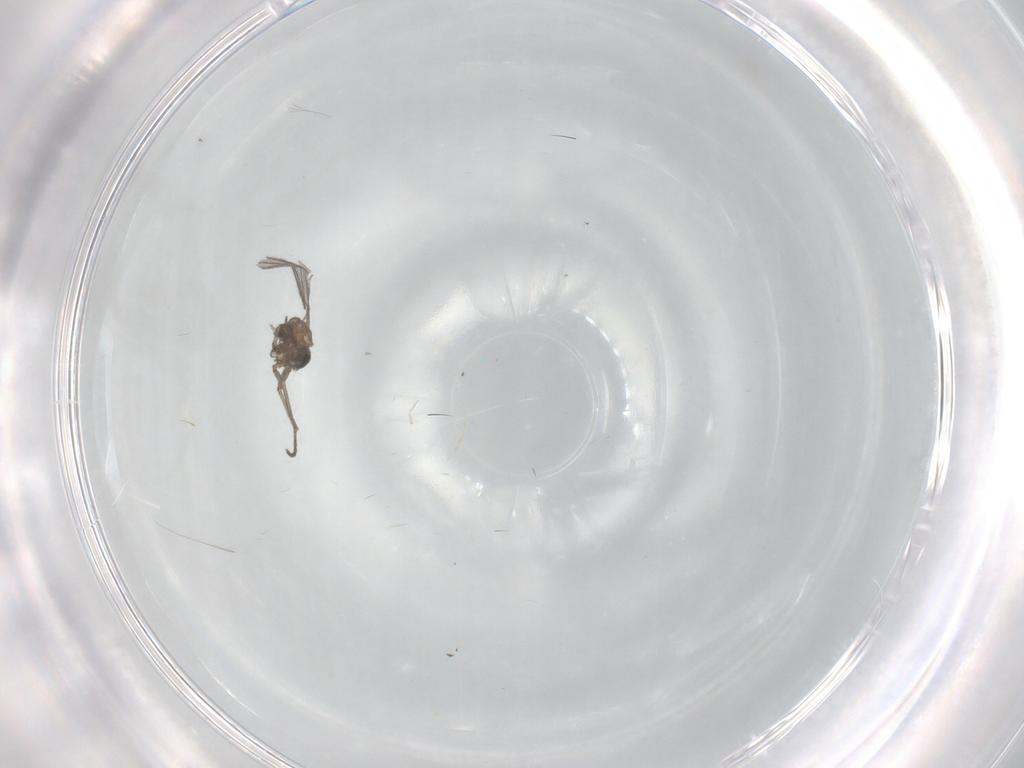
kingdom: Animalia
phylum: Arthropoda
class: Insecta
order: Diptera
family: Sciaridae
